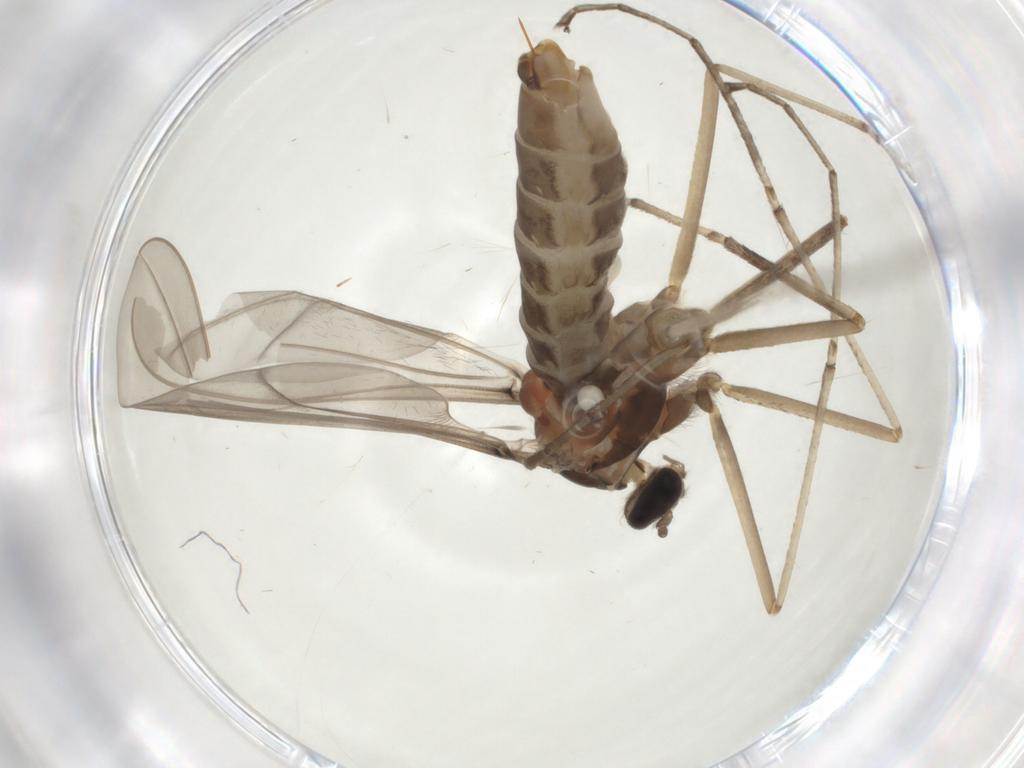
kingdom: Animalia
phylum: Arthropoda
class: Insecta
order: Diptera
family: Cecidomyiidae
